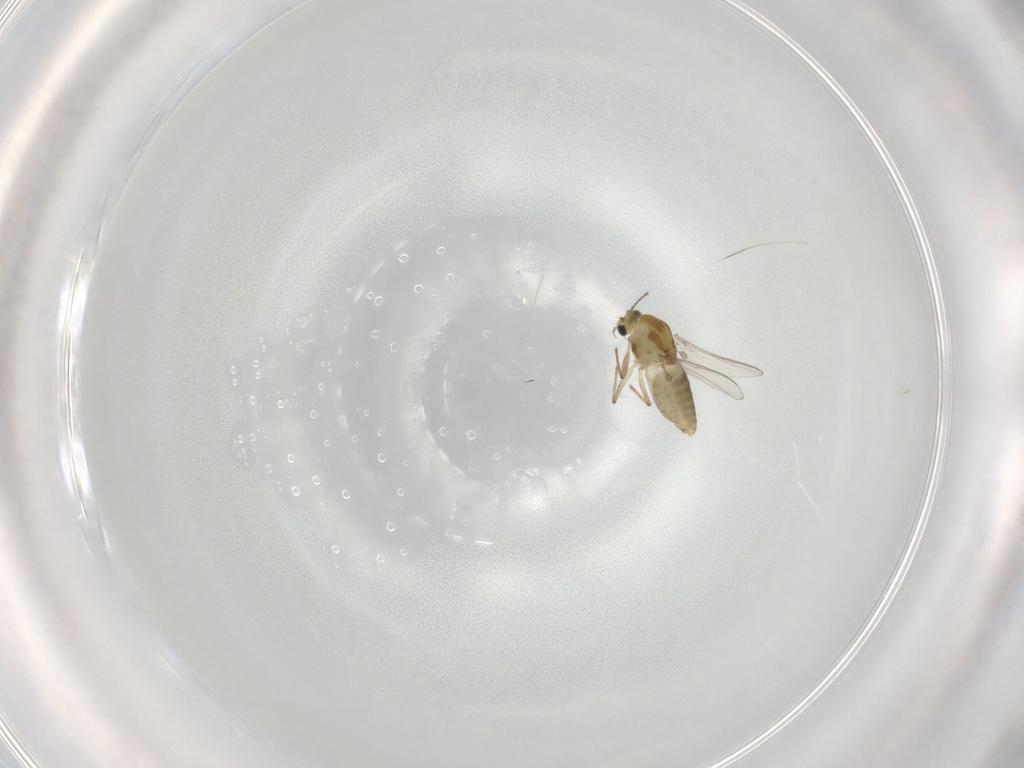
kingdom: Animalia
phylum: Arthropoda
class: Insecta
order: Diptera
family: Chironomidae
